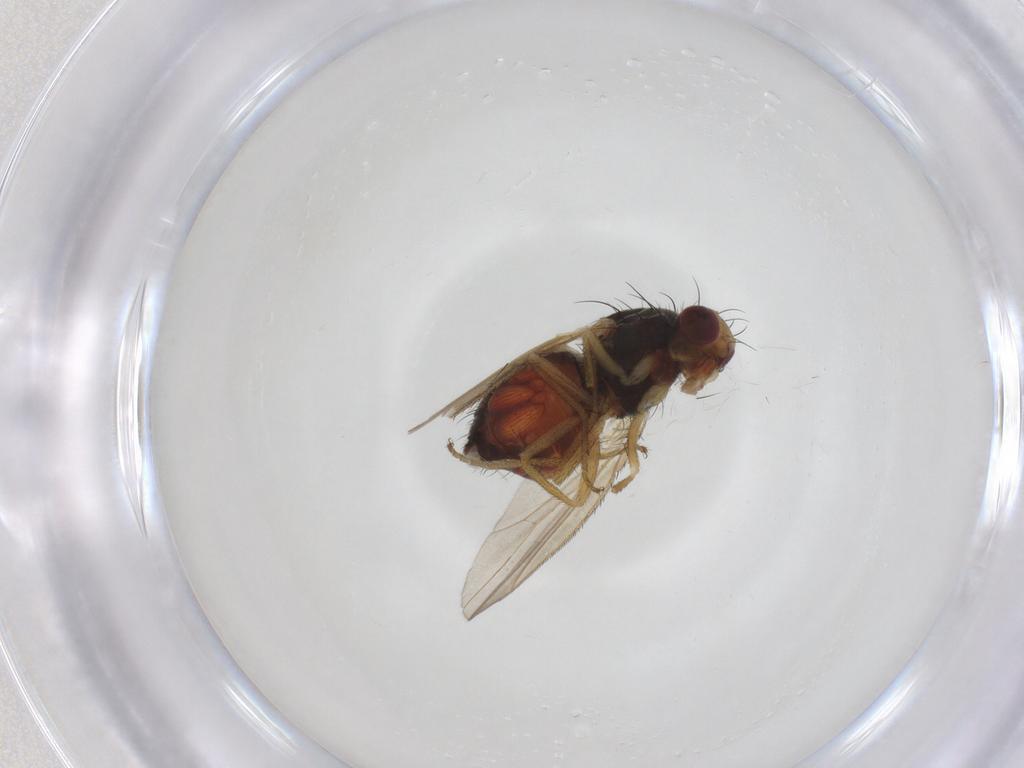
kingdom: Animalia
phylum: Arthropoda
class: Insecta
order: Diptera
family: Heleomyzidae
